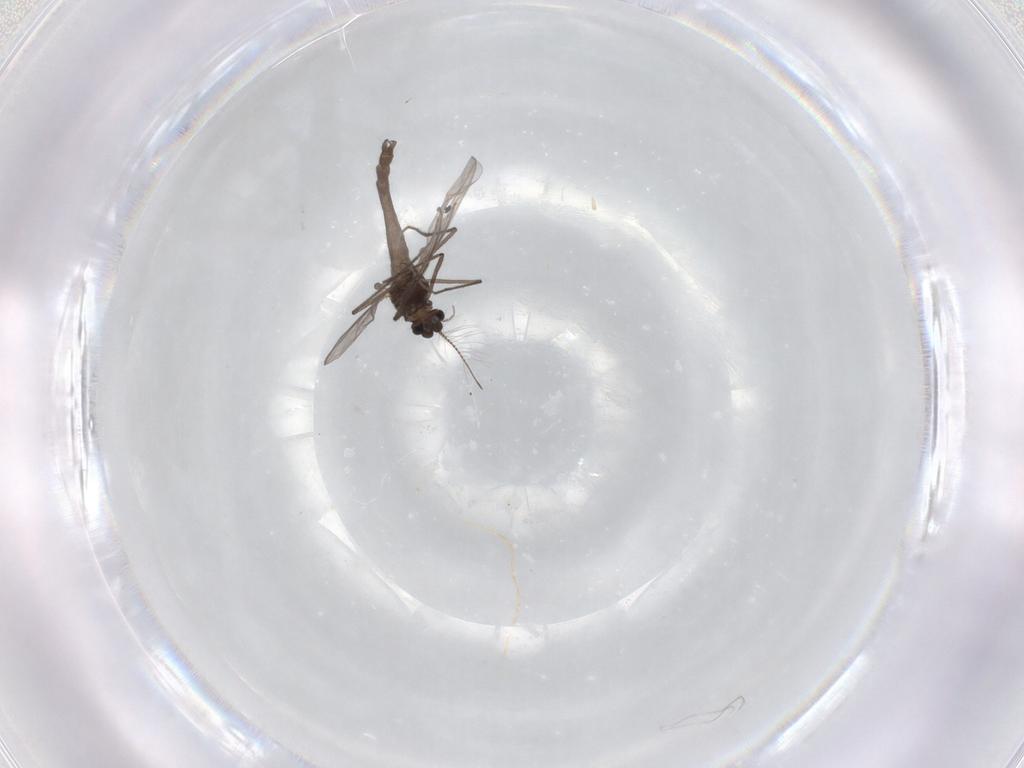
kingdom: Animalia
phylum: Arthropoda
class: Insecta
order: Diptera
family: Chironomidae
